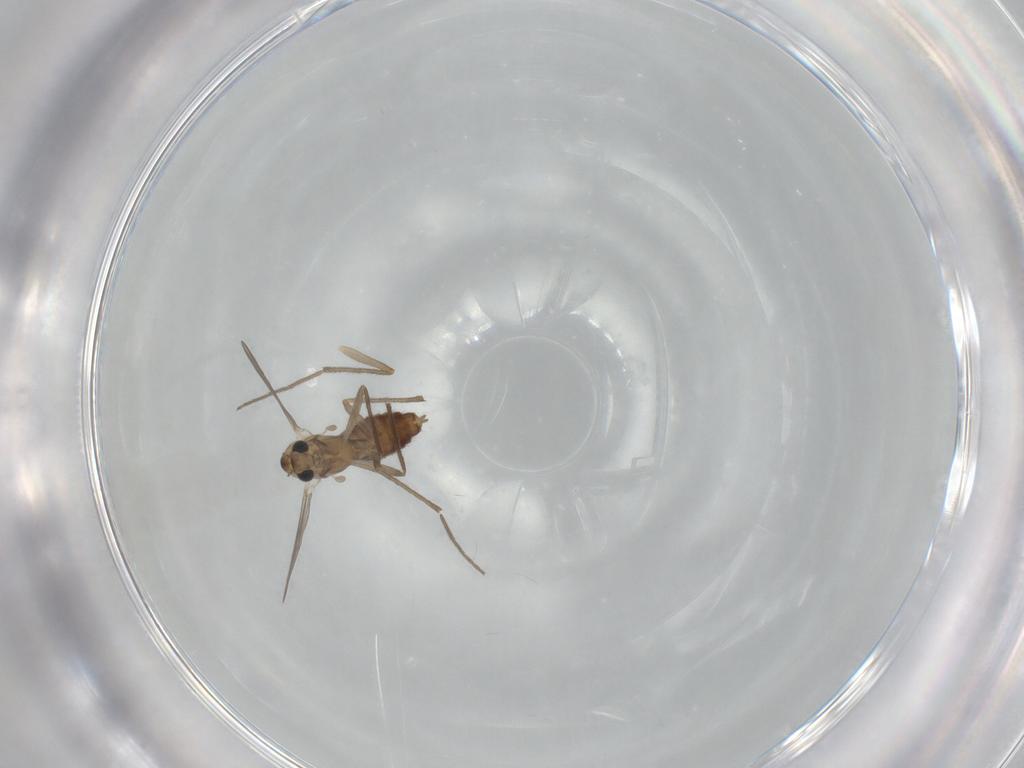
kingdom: Animalia
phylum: Arthropoda
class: Insecta
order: Diptera
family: Chironomidae
